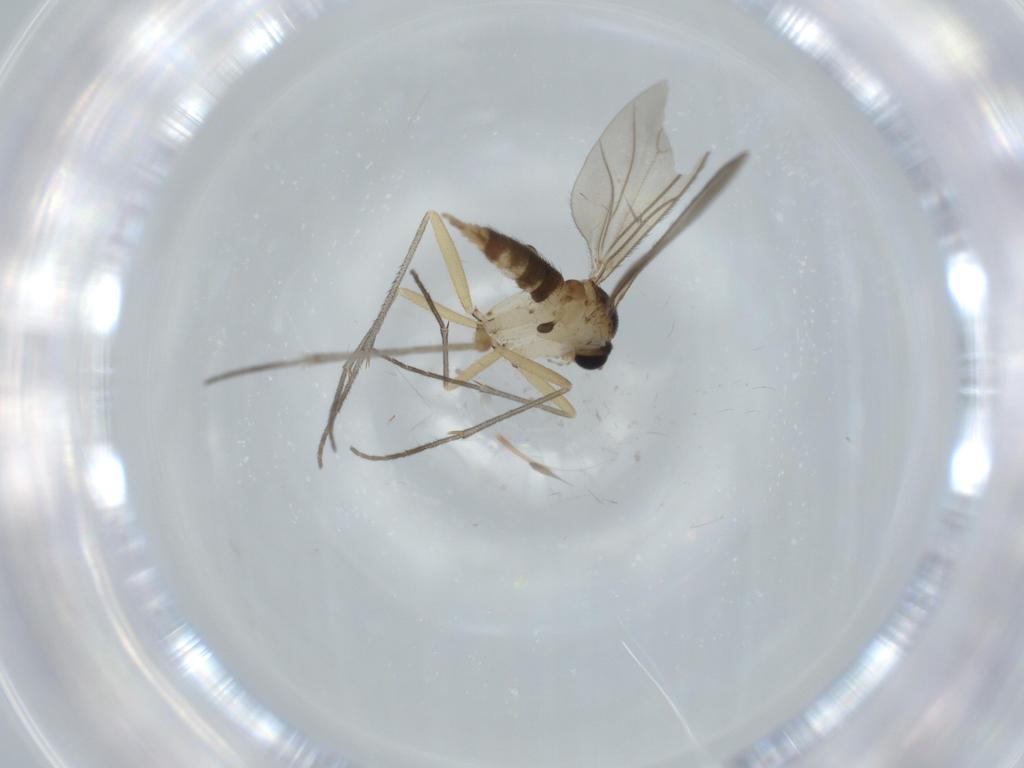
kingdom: Animalia
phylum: Arthropoda
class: Insecta
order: Diptera
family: Sciaridae
